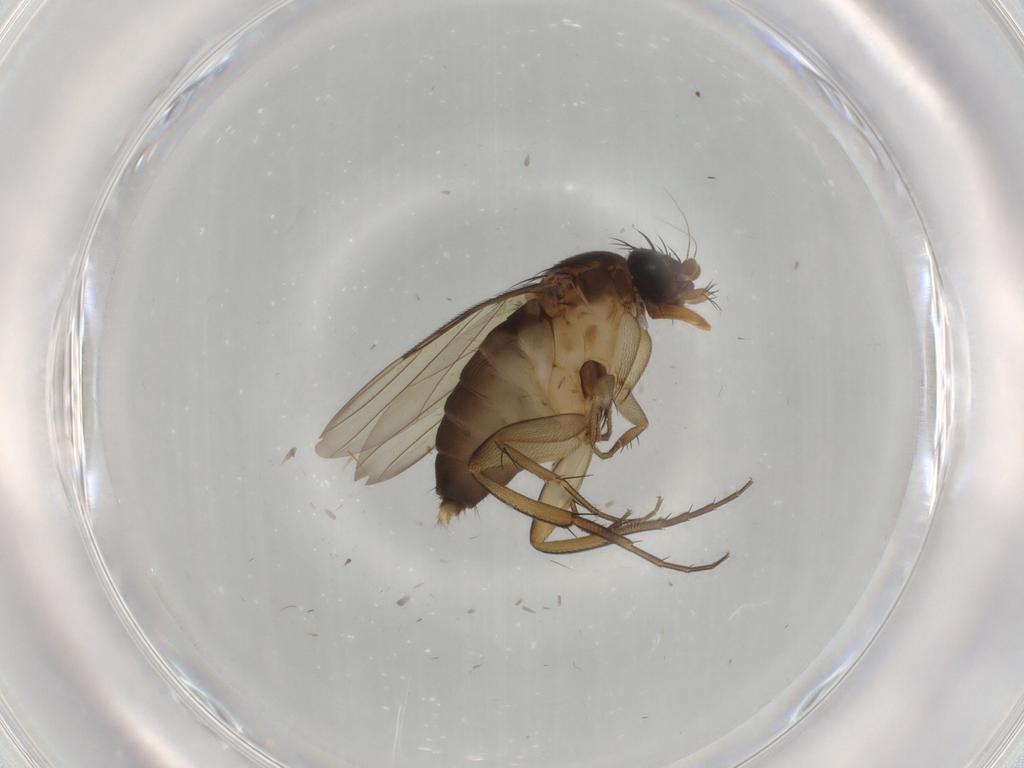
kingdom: Animalia
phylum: Arthropoda
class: Insecta
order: Diptera
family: Phoridae
